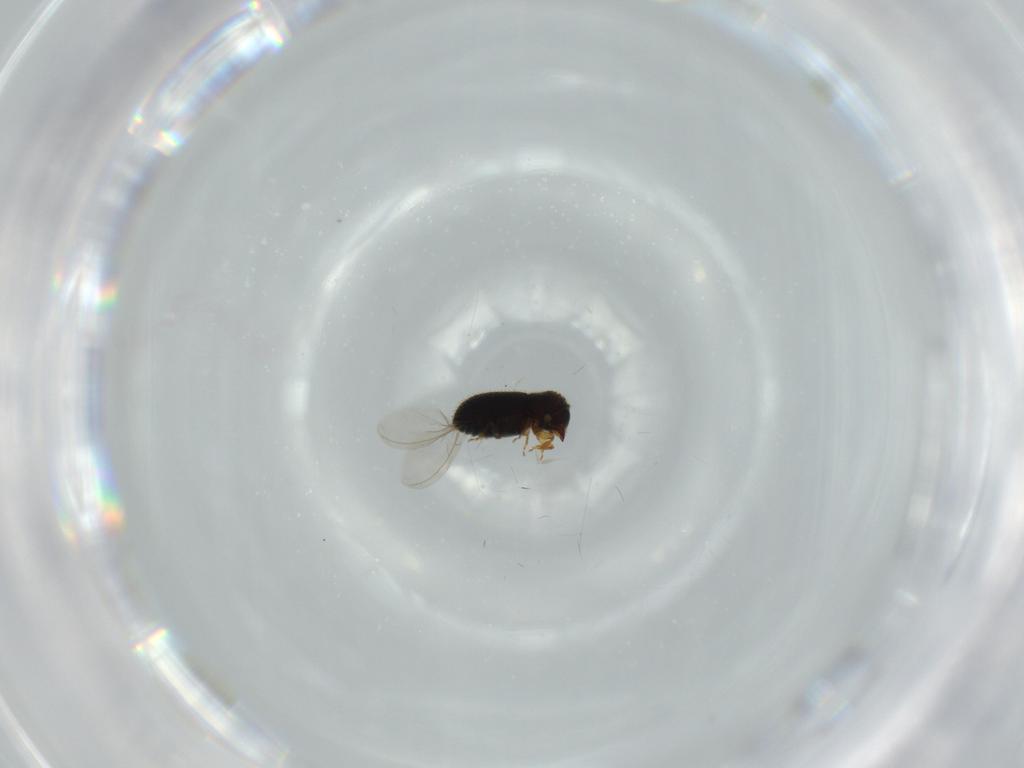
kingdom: Animalia
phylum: Arthropoda
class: Insecta
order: Coleoptera
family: Curculionidae
